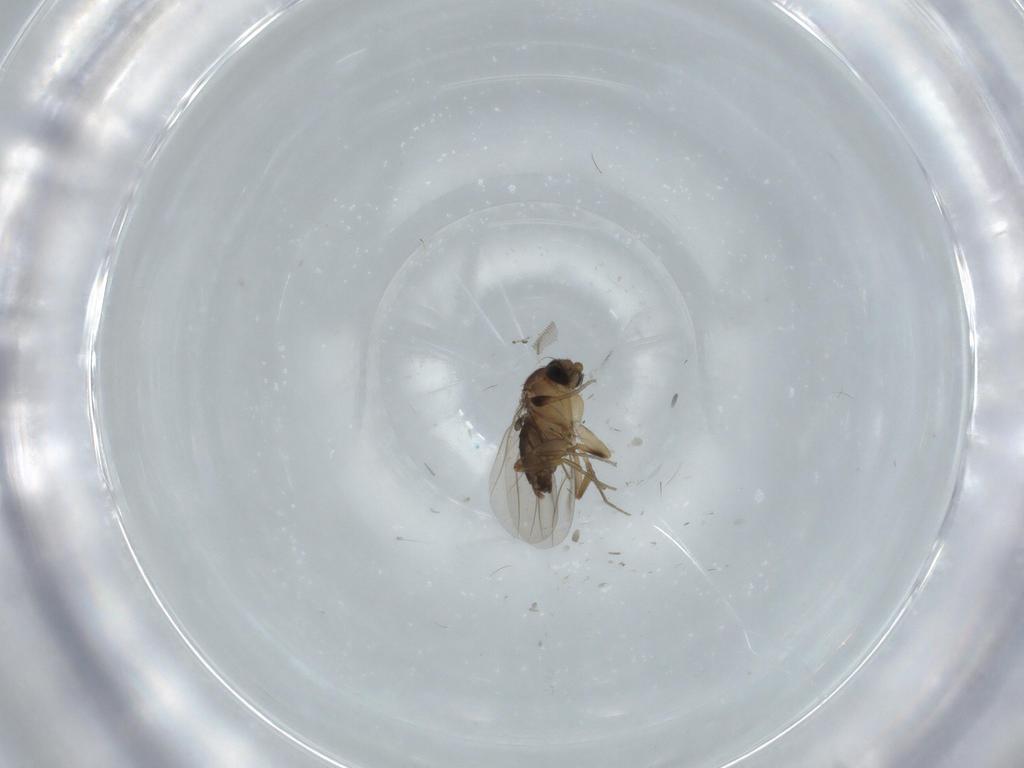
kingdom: Animalia
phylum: Arthropoda
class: Insecta
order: Diptera
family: Phoridae
